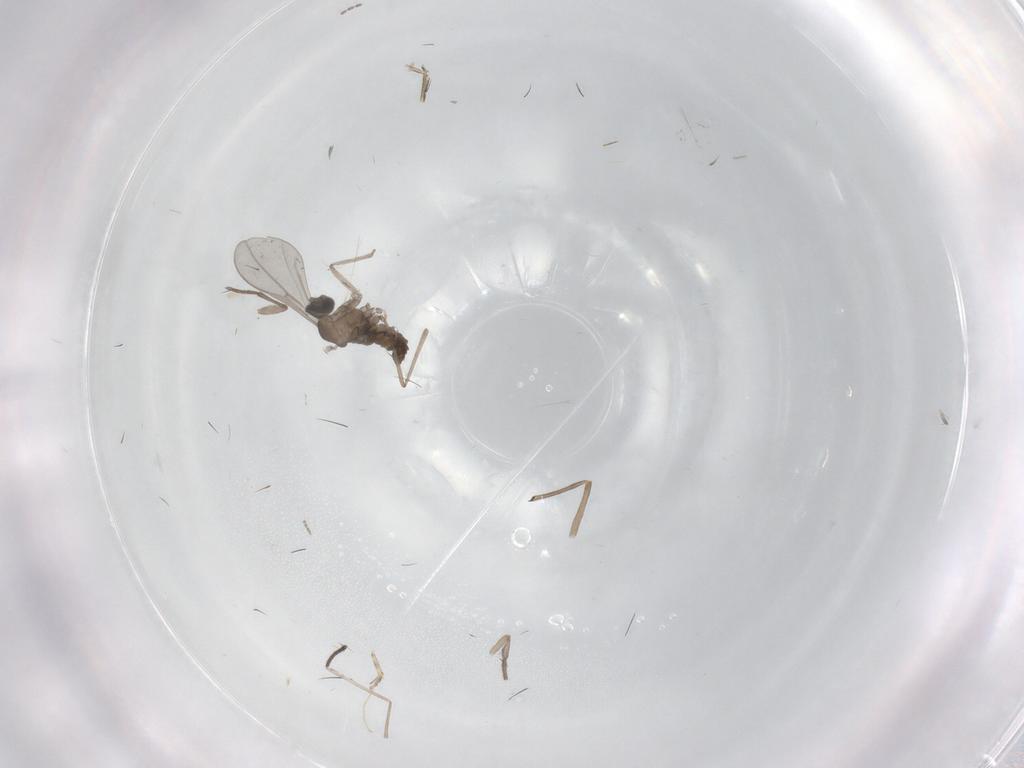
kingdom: Animalia
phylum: Arthropoda
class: Insecta
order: Diptera
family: Sciaridae
